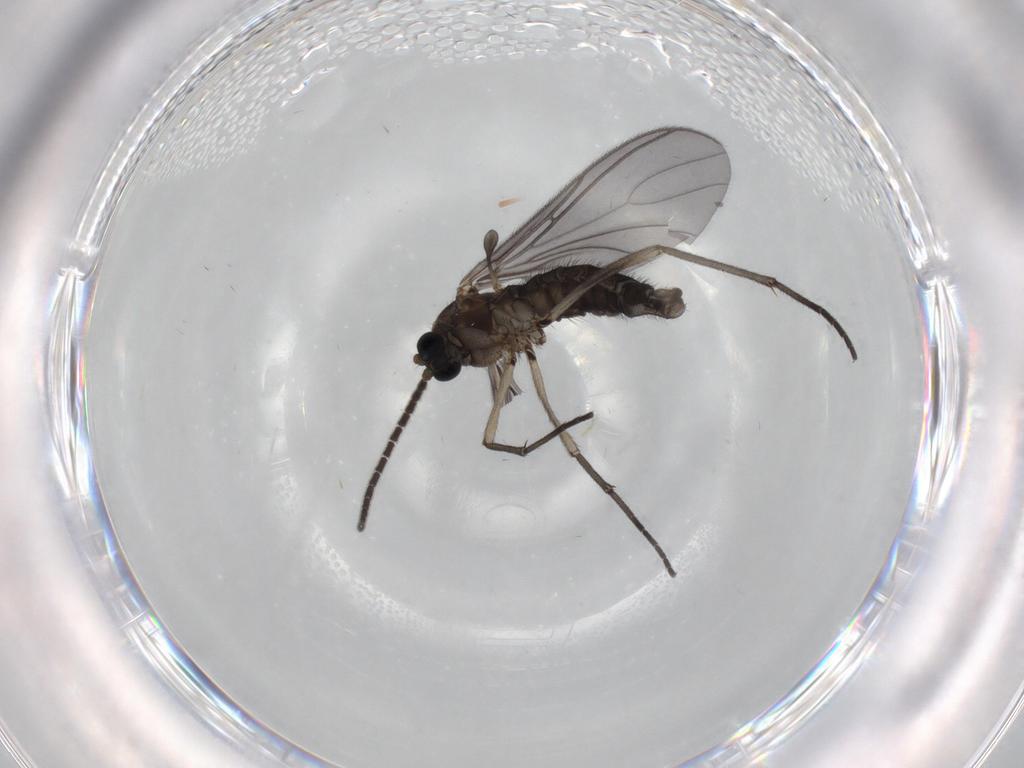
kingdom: Animalia
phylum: Arthropoda
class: Insecta
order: Diptera
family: Sciaridae
